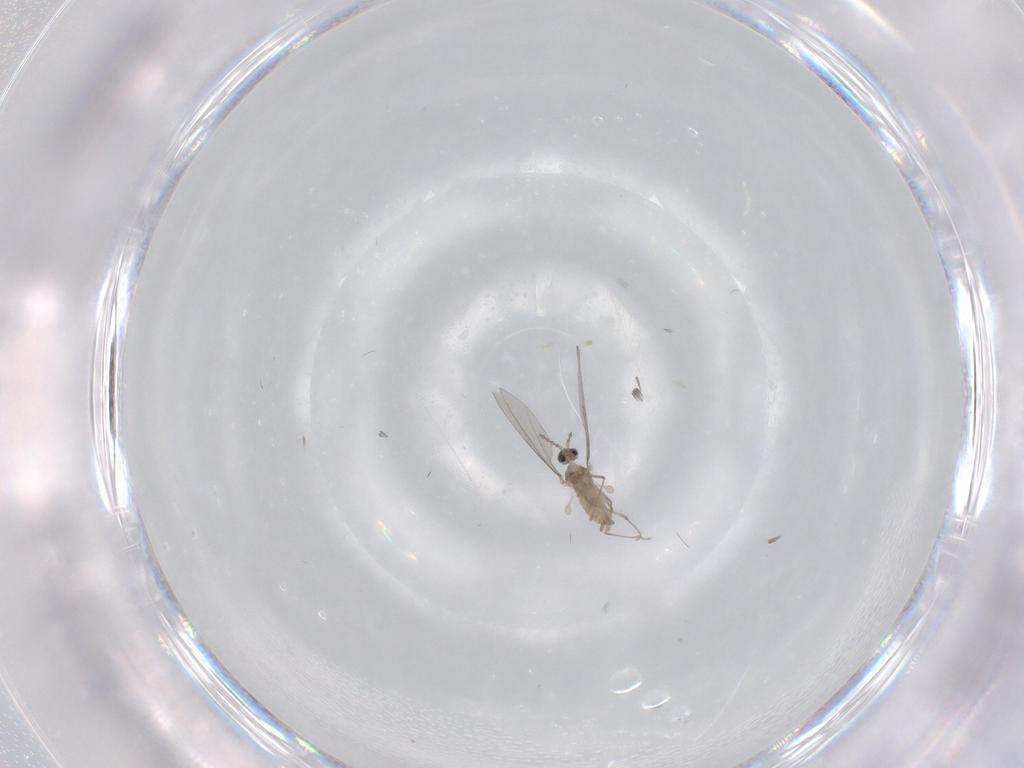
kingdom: Animalia
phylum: Arthropoda
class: Insecta
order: Diptera
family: Cecidomyiidae
